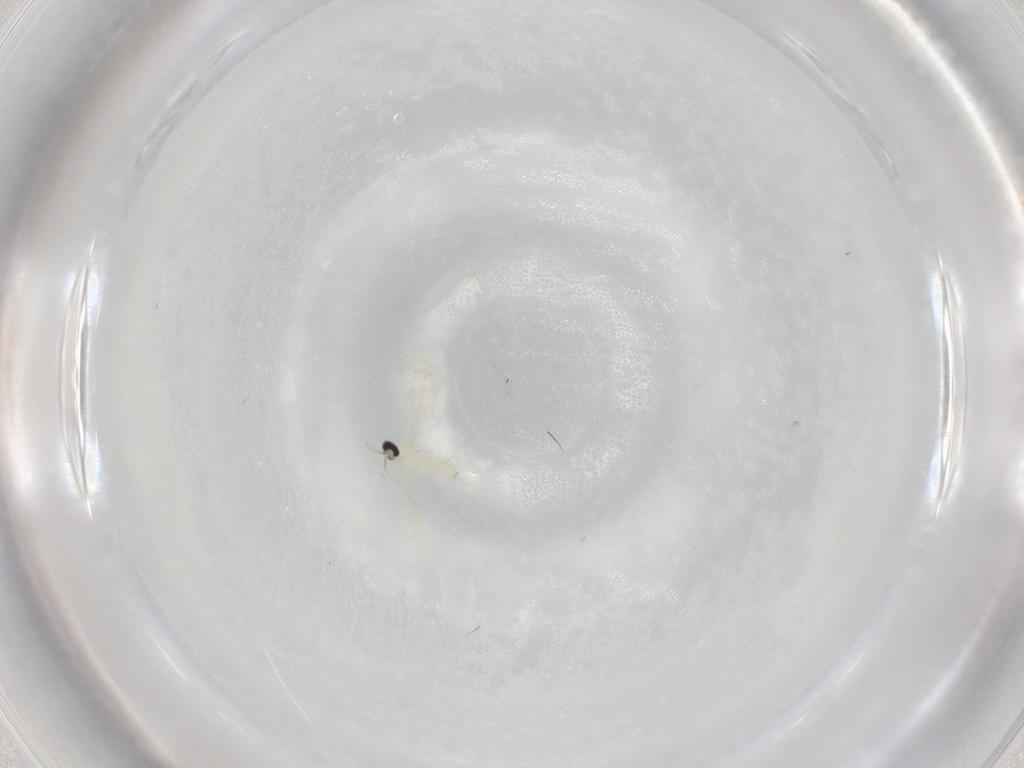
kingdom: Animalia
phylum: Arthropoda
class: Insecta
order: Diptera
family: Cecidomyiidae
